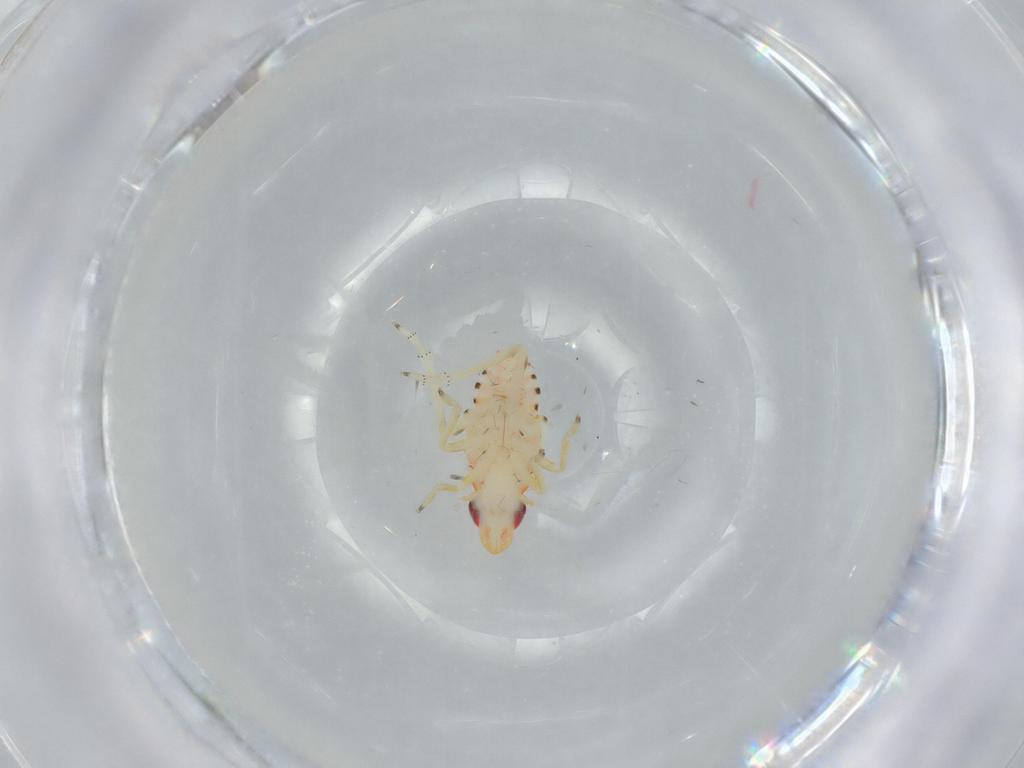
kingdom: Animalia
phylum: Arthropoda
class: Insecta
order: Hemiptera
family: Tropiduchidae
